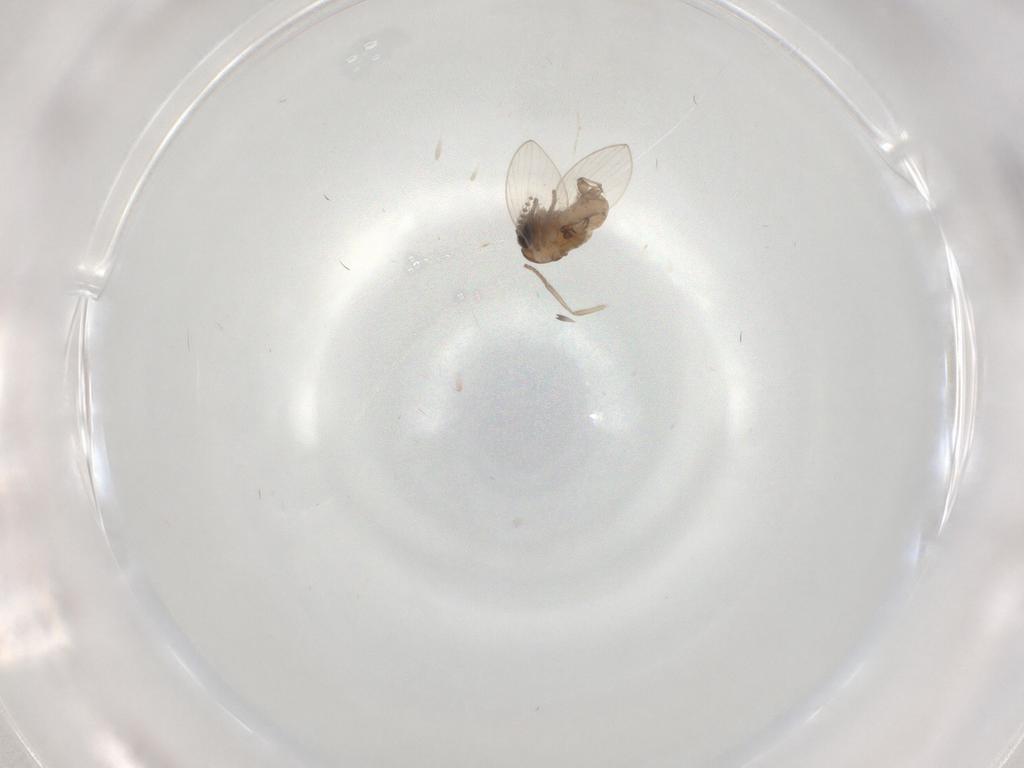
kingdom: Animalia
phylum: Arthropoda
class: Insecta
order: Diptera
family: Psychodidae
